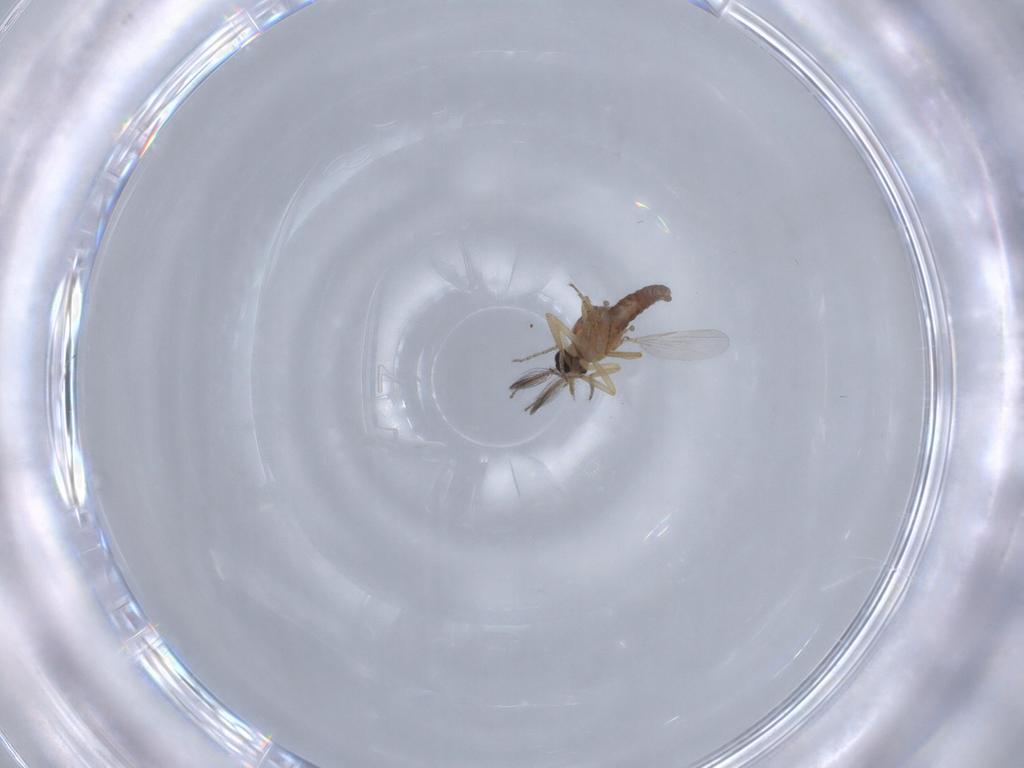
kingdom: Animalia
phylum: Arthropoda
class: Insecta
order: Diptera
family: Ceratopogonidae
